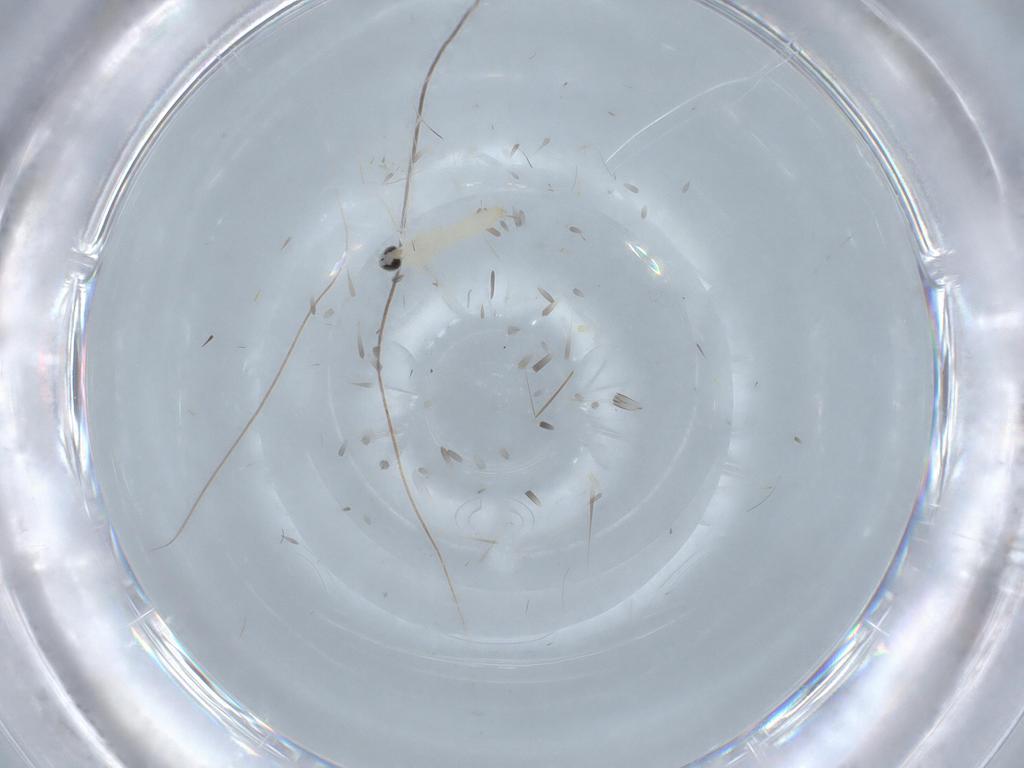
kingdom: Animalia
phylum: Arthropoda
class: Insecta
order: Diptera
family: Cecidomyiidae
